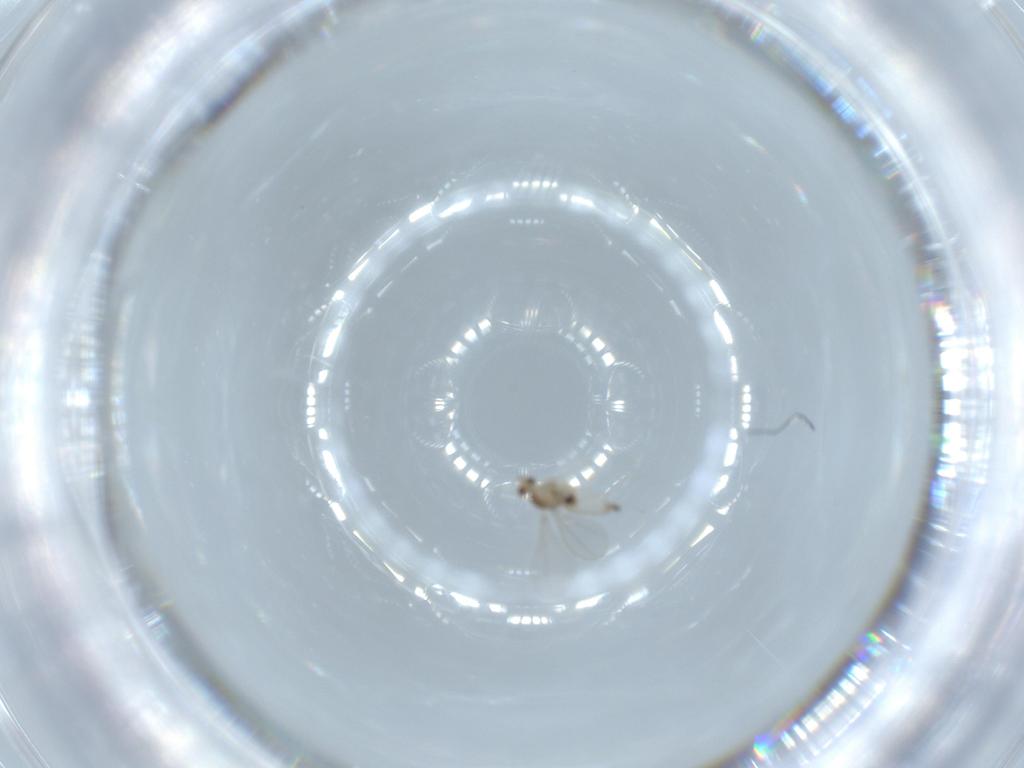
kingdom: Animalia
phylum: Arthropoda
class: Insecta
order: Diptera
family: Cecidomyiidae
